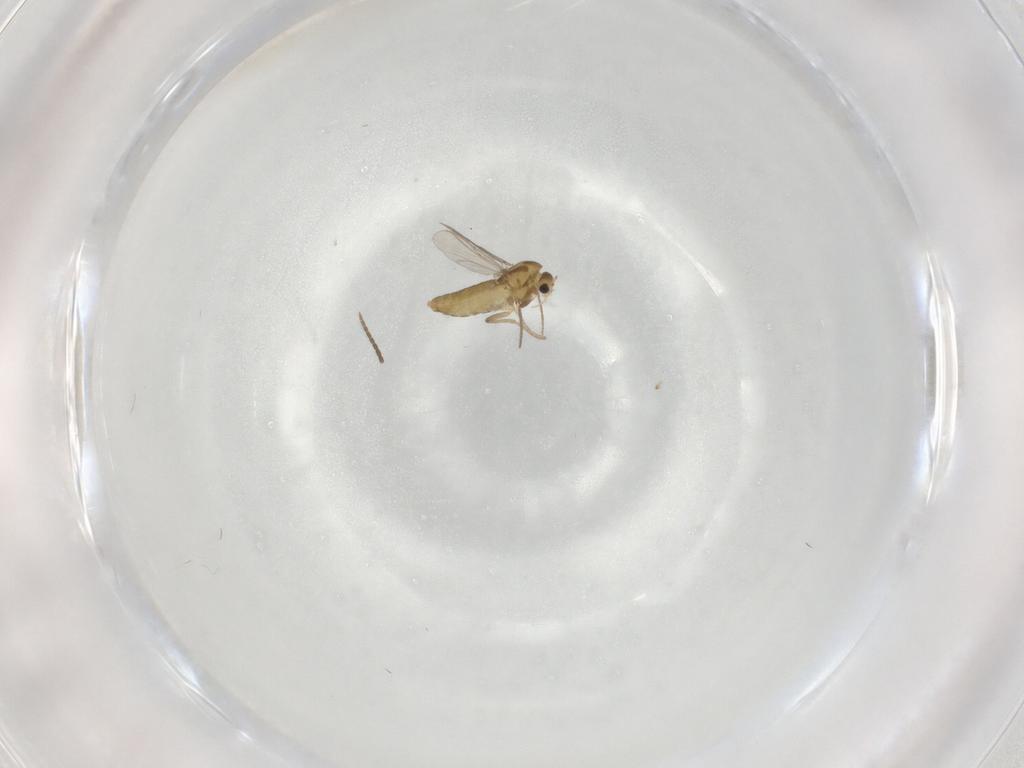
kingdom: Animalia
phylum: Arthropoda
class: Insecta
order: Diptera
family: Chironomidae
